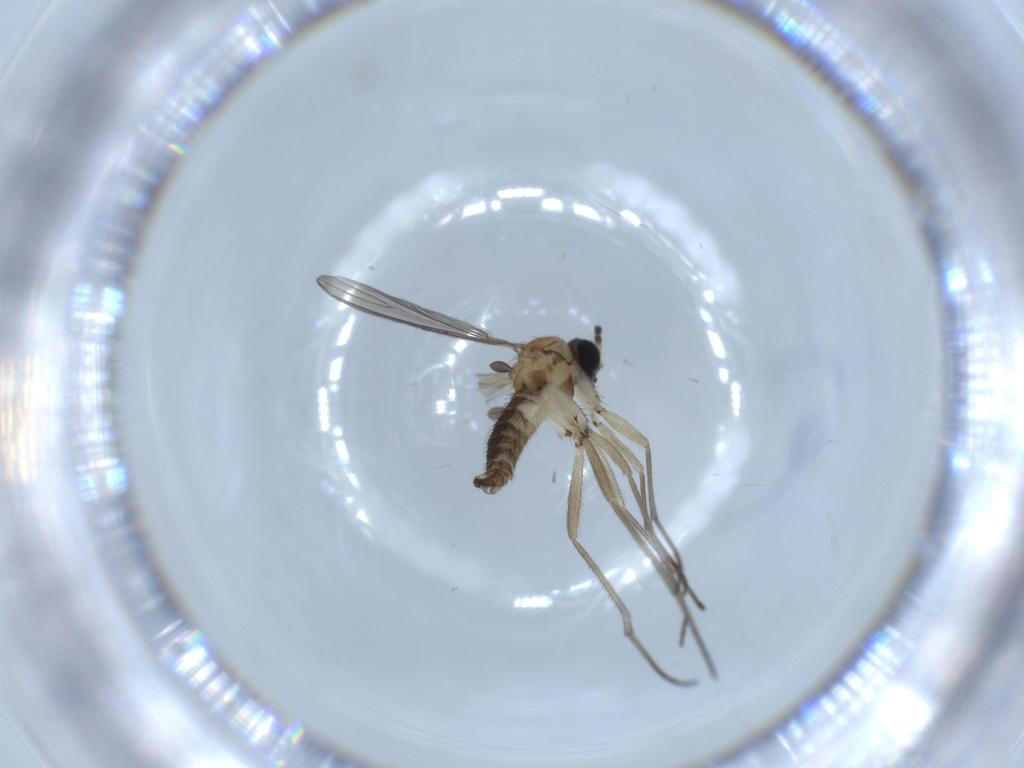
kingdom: Animalia
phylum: Arthropoda
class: Insecta
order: Diptera
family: Sciaridae
